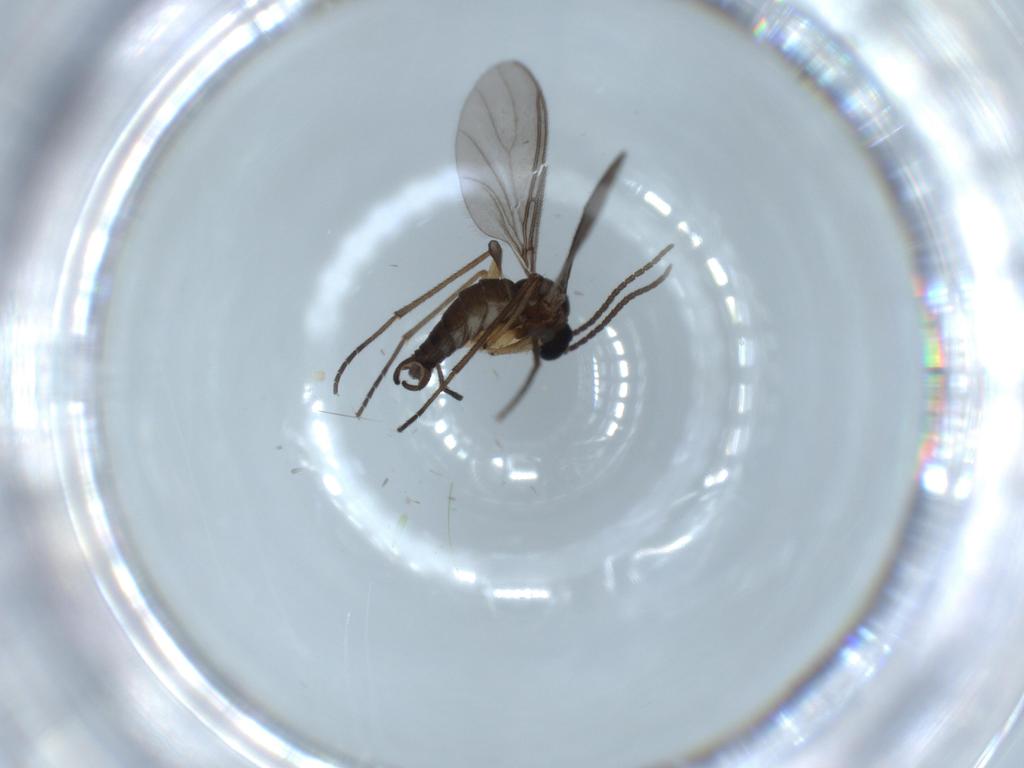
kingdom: Animalia
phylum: Arthropoda
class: Insecta
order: Diptera
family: Sciaridae
